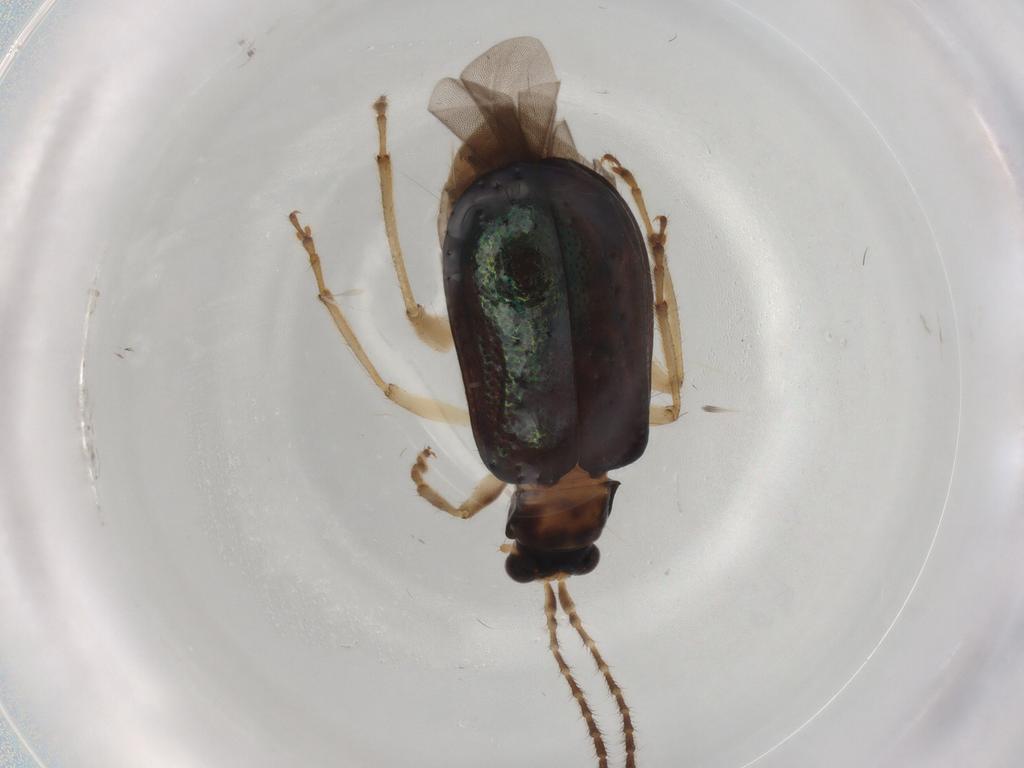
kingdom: Animalia
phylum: Arthropoda
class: Insecta
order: Coleoptera
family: Chrysomelidae
